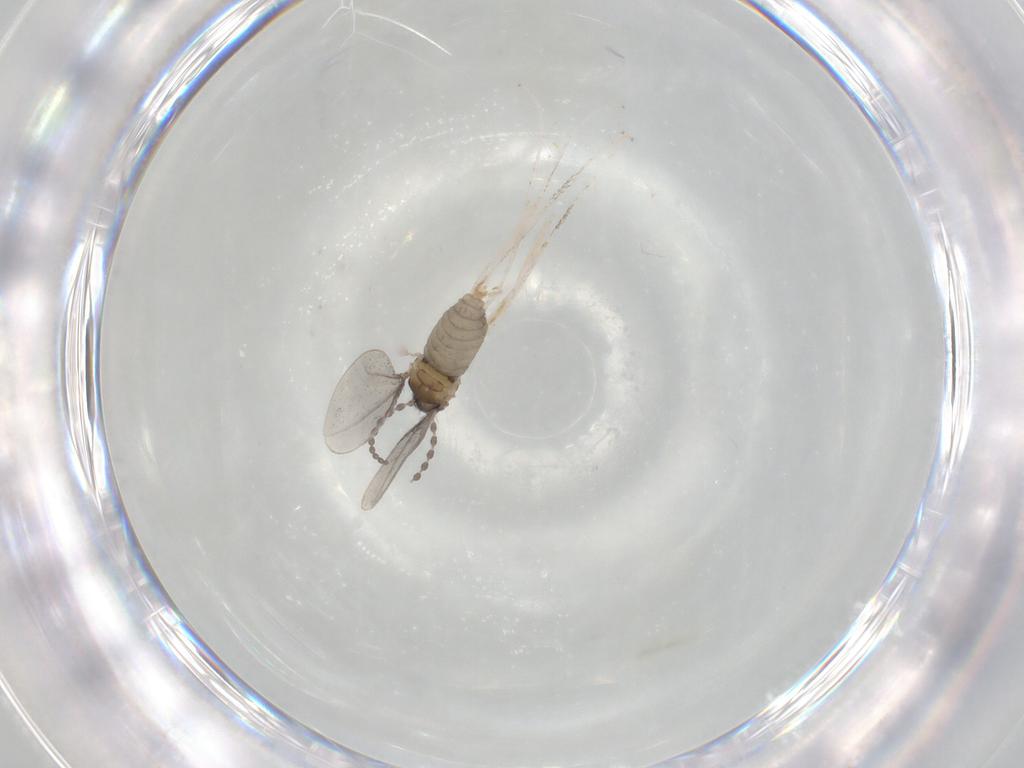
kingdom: Animalia
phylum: Arthropoda
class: Insecta
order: Diptera
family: Cecidomyiidae
